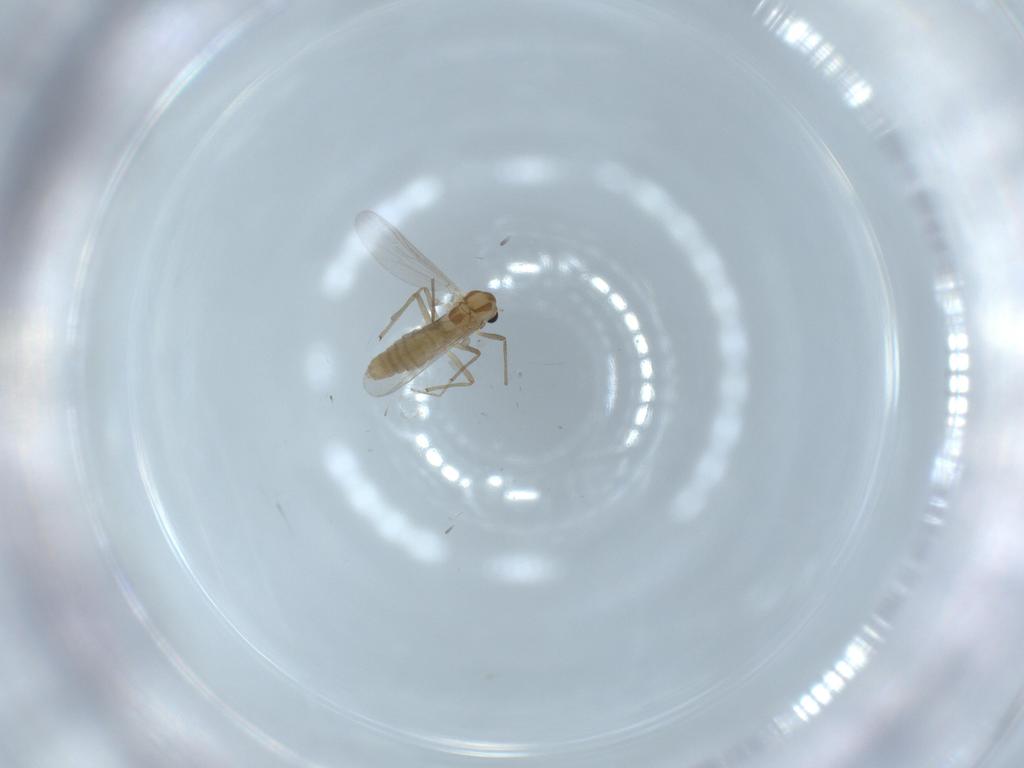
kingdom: Animalia
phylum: Arthropoda
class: Insecta
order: Diptera
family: Chironomidae
